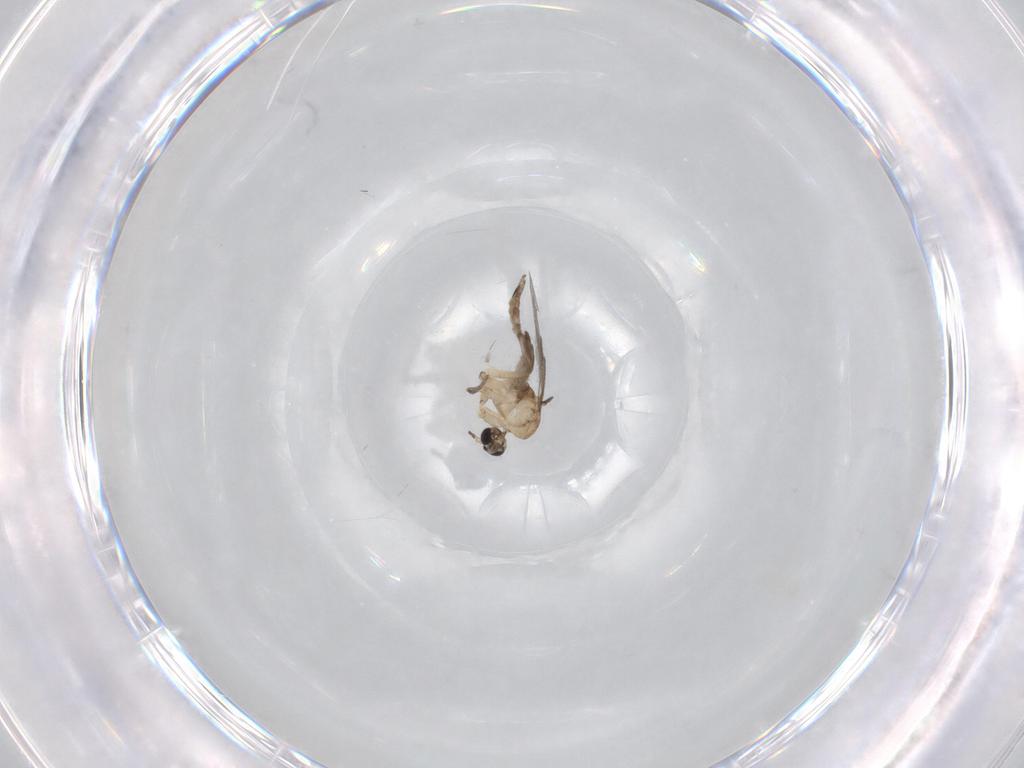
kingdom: Animalia
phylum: Arthropoda
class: Insecta
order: Diptera
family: Sciaridae
